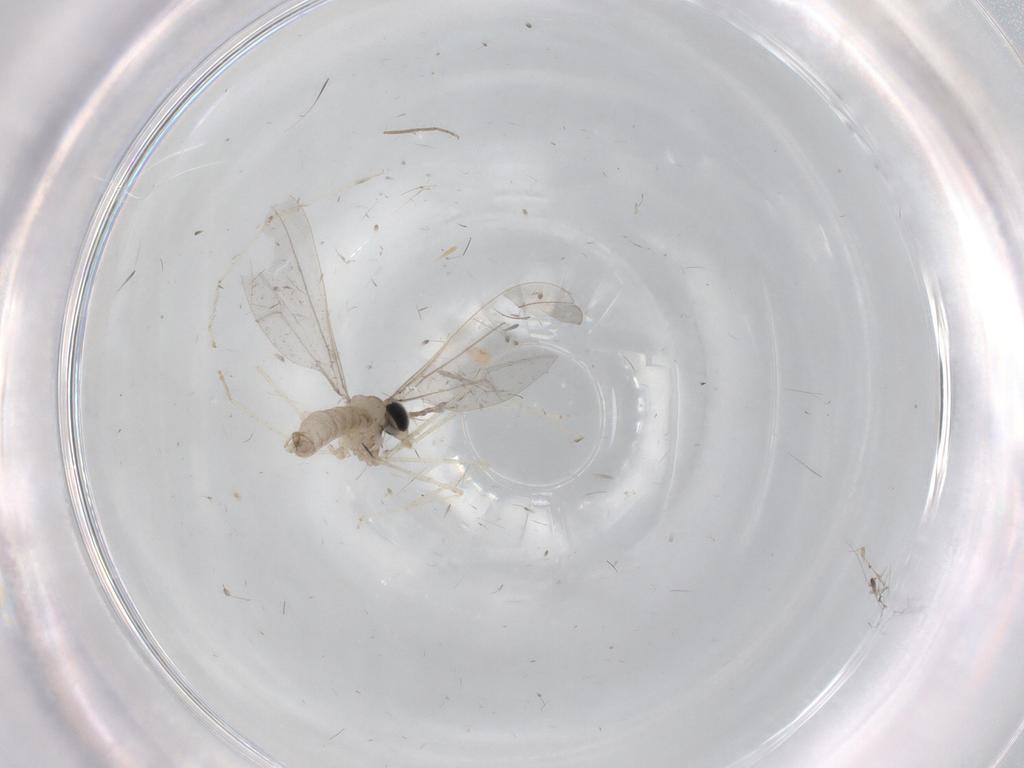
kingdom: Animalia
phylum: Arthropoda
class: Insecta
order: Diptera
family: Cecidomyiidae
